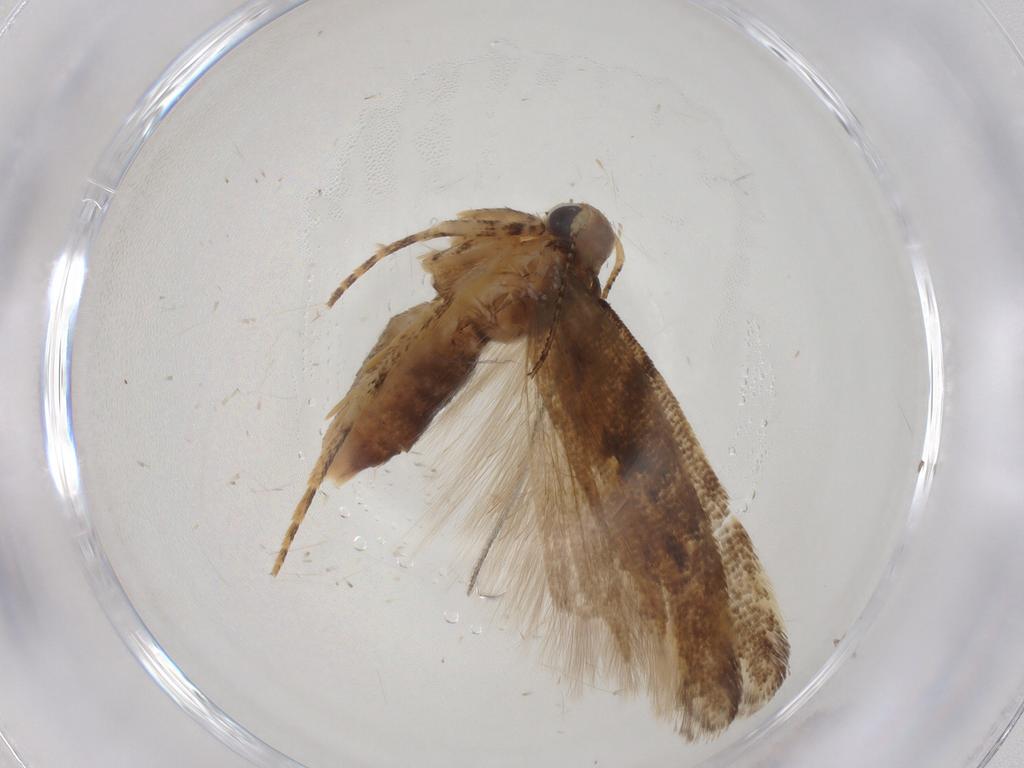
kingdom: Animalia
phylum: Arthropoda
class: Insecta
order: Lepidoptera
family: Gelechiidae
